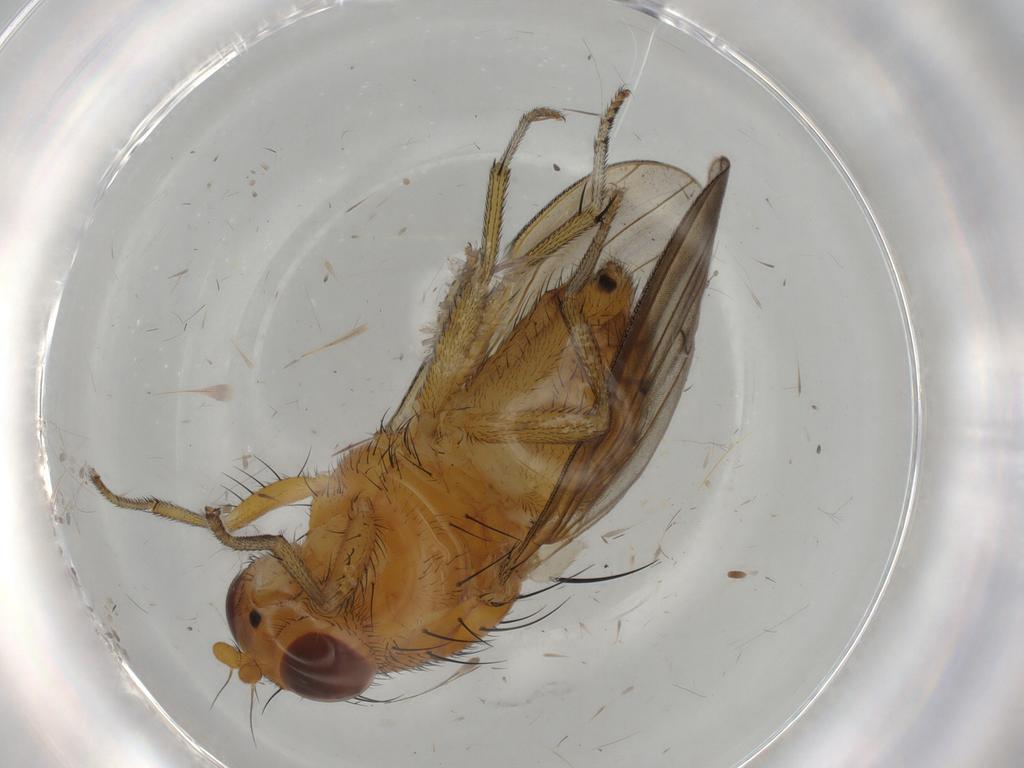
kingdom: Animalia
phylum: Arthropoda
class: Insecta
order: Diptera
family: Cecidomyiidae
